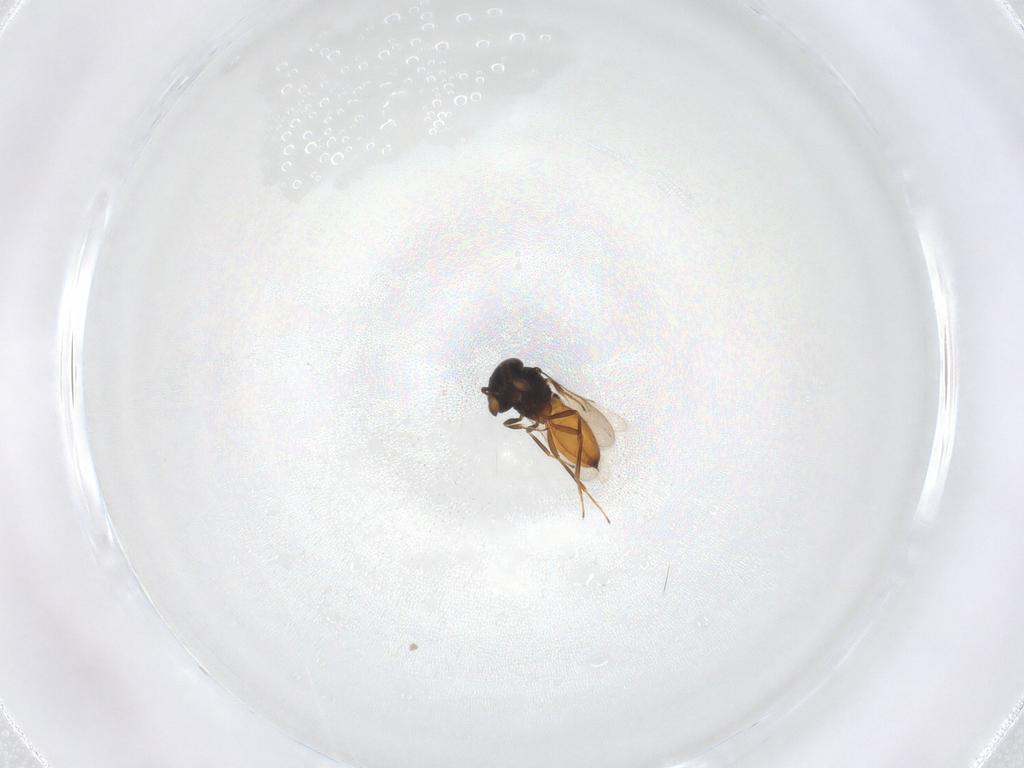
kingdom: Animalia
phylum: Arthropoda
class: Insecta
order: Hymenoptera
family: Scelionidae
